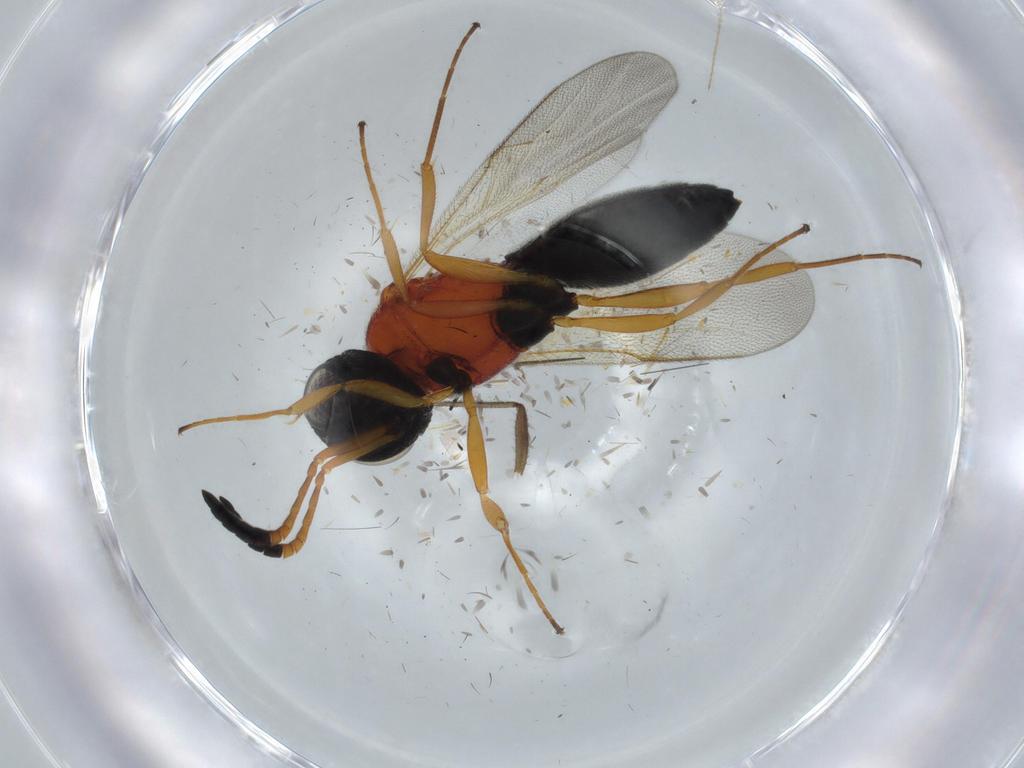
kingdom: Animalia
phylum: Arthropoda
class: Insecta
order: Hymenoptera
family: Scelionidae
